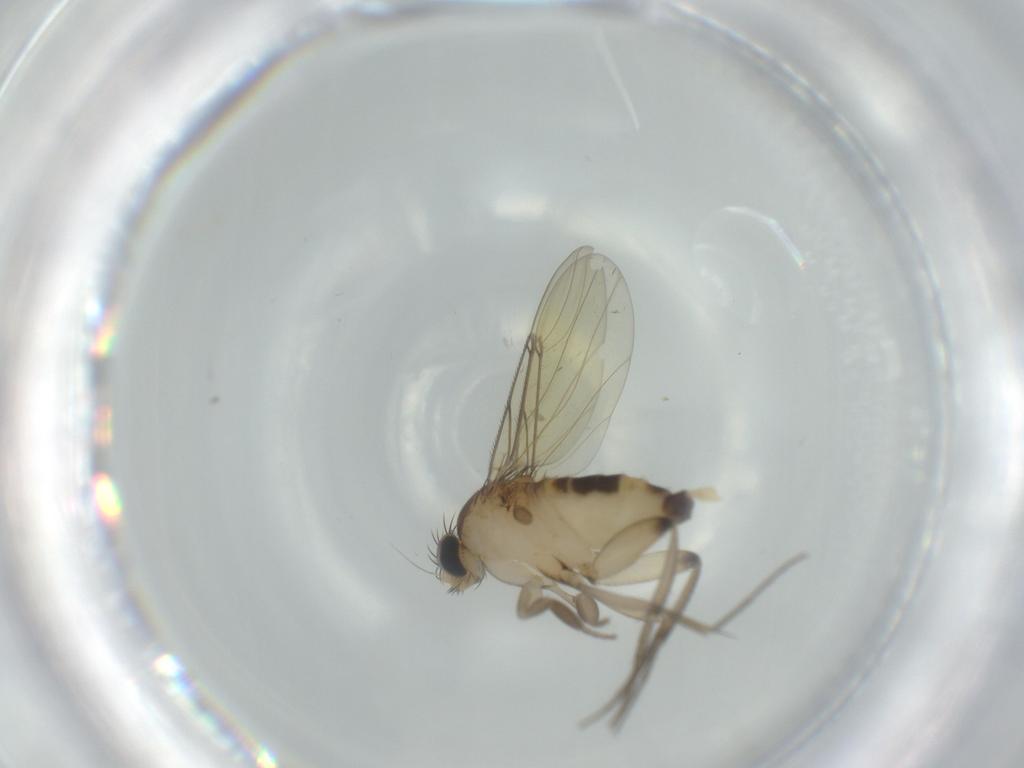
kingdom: Animalia
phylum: Arthropoda
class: Insecta
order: Diptera
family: Phoridae
